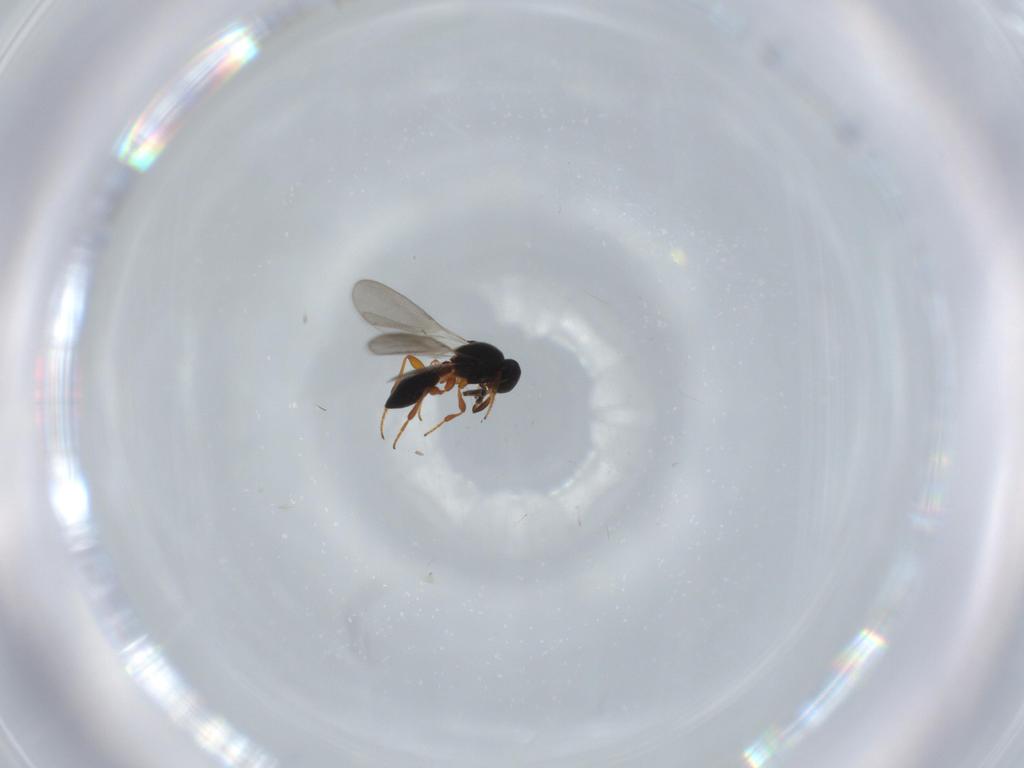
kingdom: Animalia
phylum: Arthropoda
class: Insecta
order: Hymenoptera
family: Platygastridae
